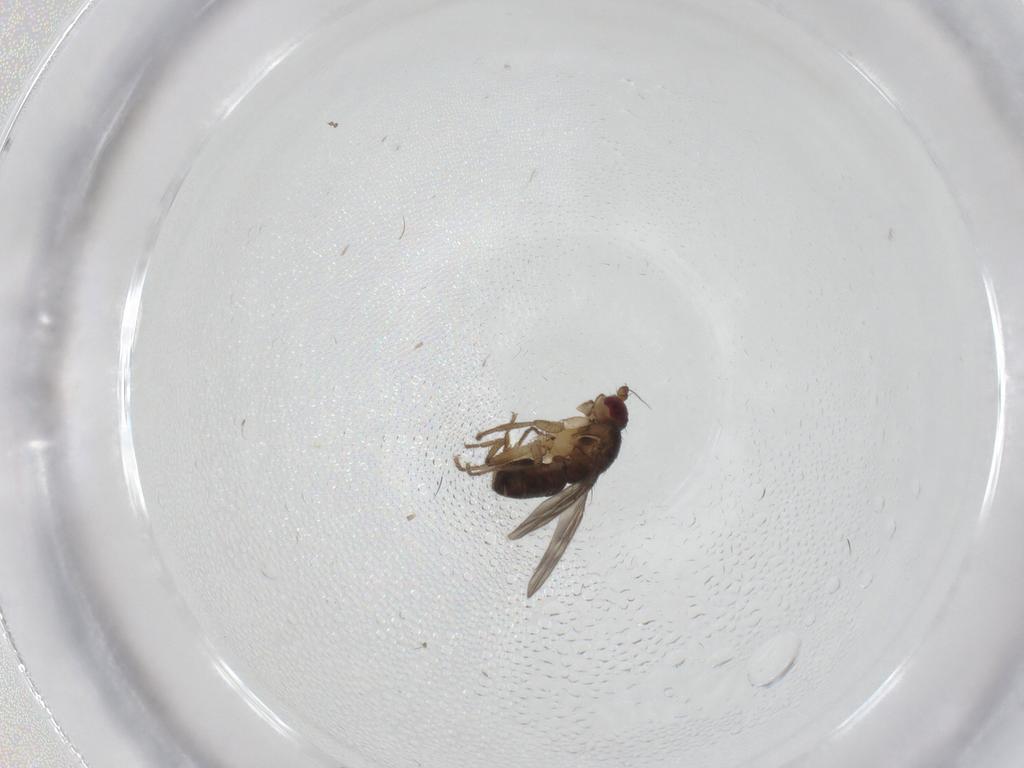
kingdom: Animalia
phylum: Arthropoda
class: Insecta
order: Diptera
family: Sphaeroceridae
